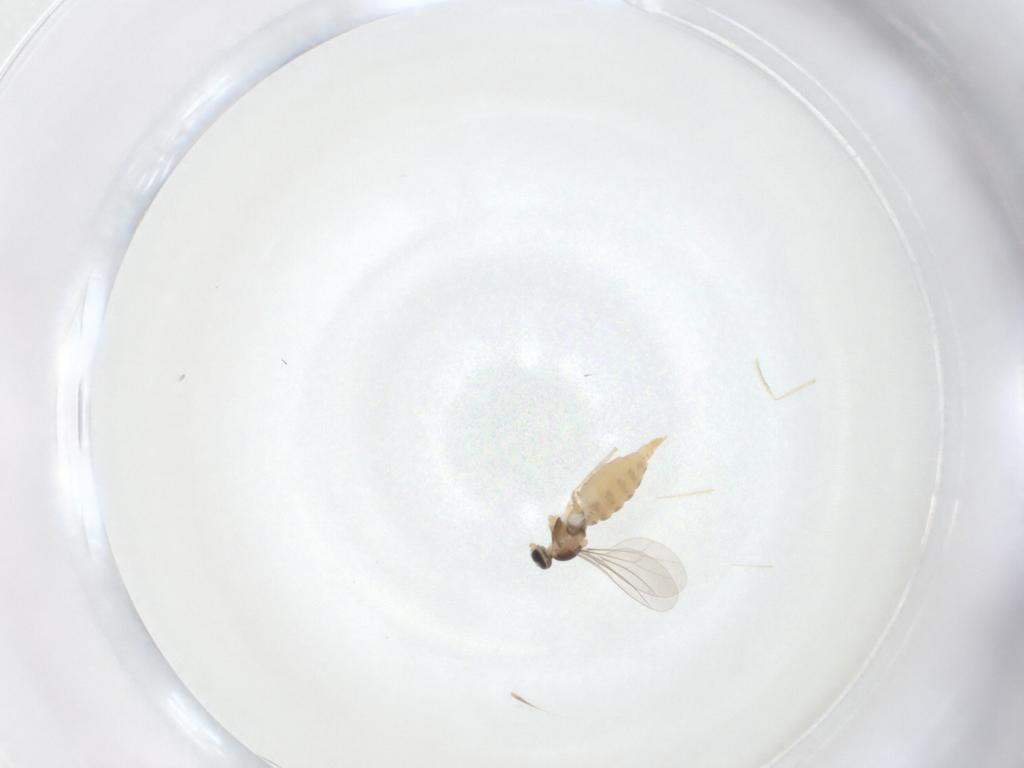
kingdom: Animalia
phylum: Arthropoda
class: Insecta
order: Diptera
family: Cecidomyiidae
